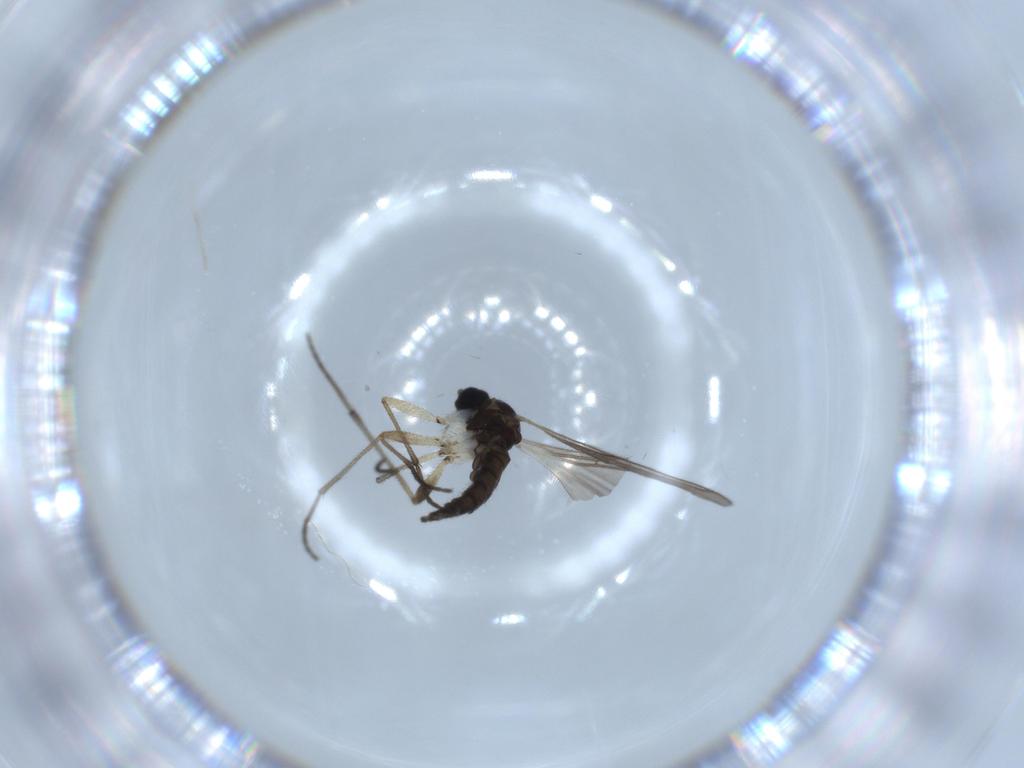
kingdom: Animalia
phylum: Arthropoda
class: Insecta
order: Diptera
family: Sciaridae
